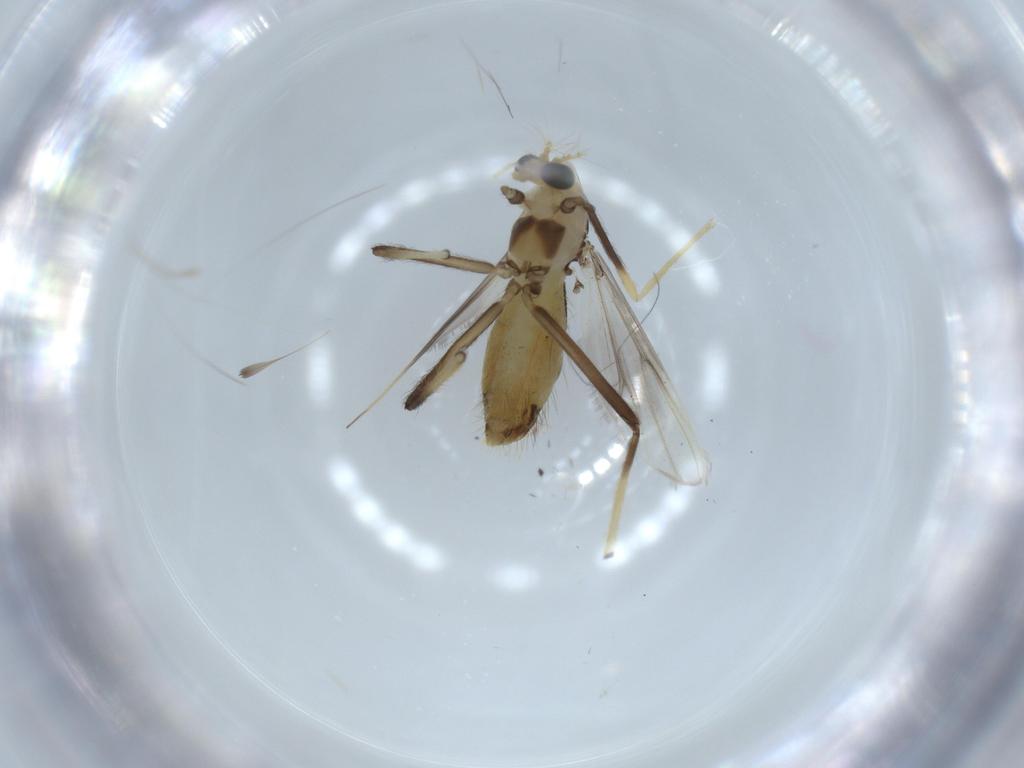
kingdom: Animalia
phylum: Arthropoda
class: Insecta
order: Diptera
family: Chironomidae
